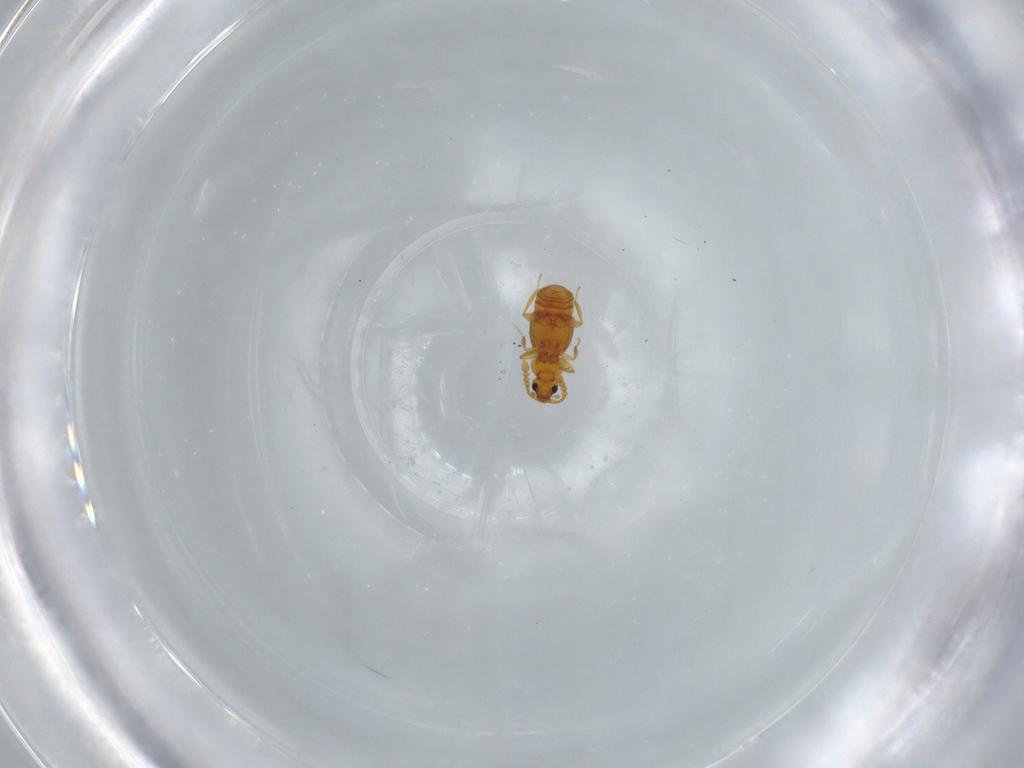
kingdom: Animalia
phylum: Arthropoda
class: Insecta
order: Coleoptera
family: Staphylinidae
